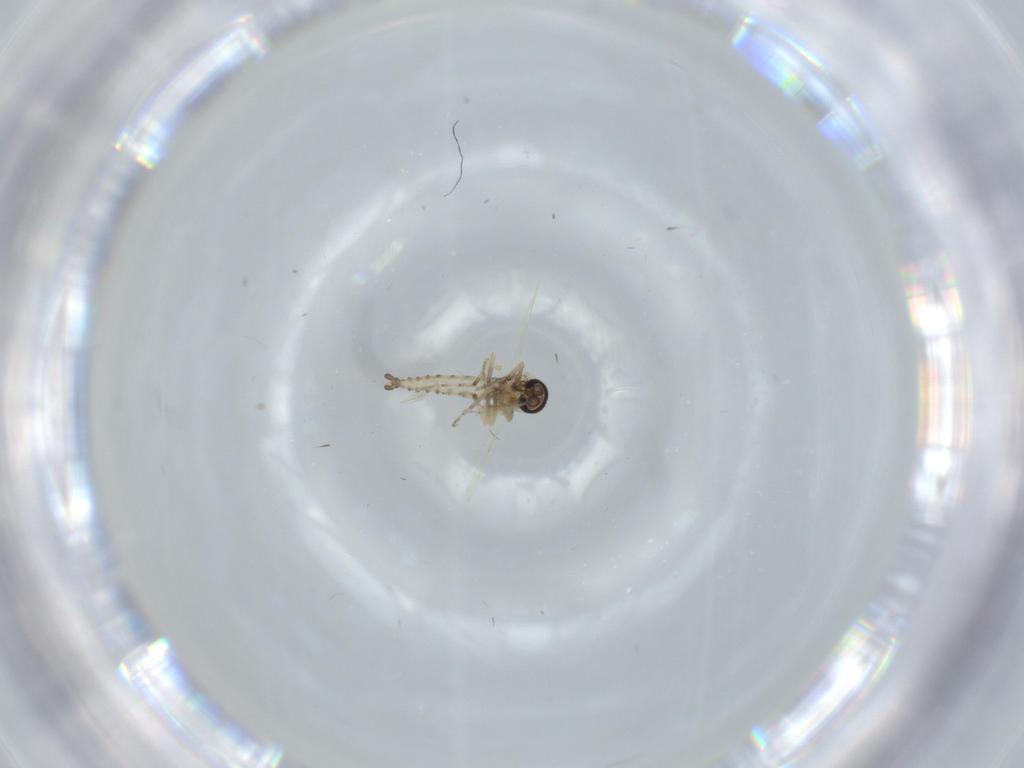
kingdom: Animalia
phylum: Arthropoda
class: Insecta
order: Diptera
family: Ceratopogonidae
